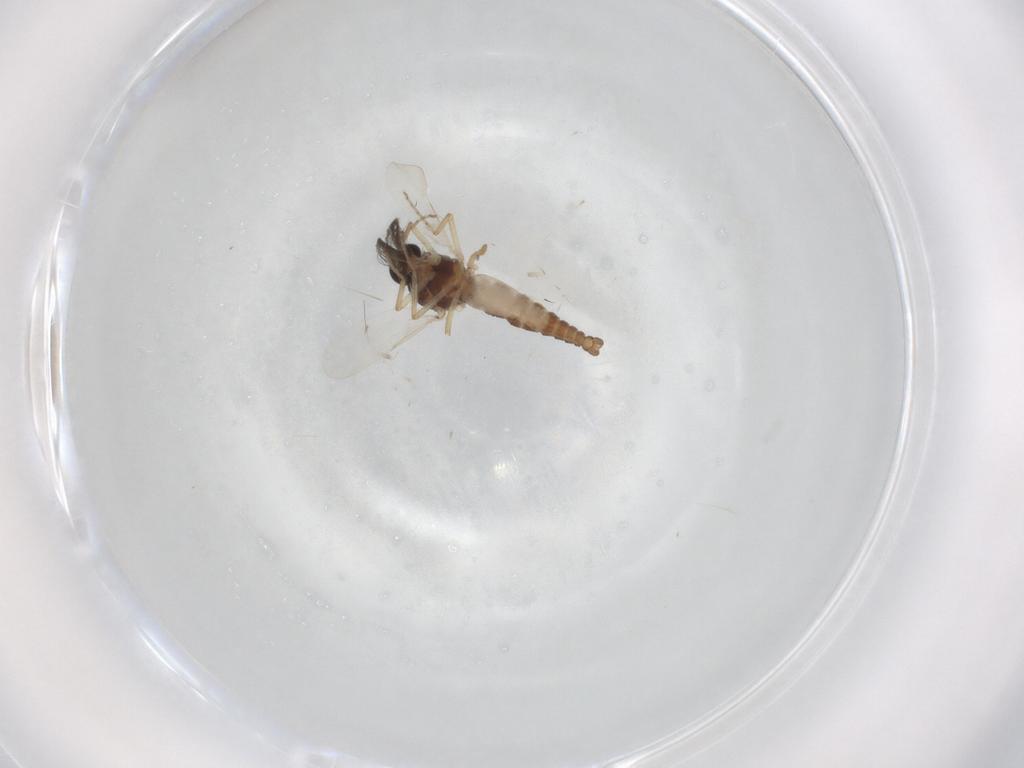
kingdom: Animalia
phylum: Arthropoda
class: Insecta
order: Diptera
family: Ceratopogonidae
